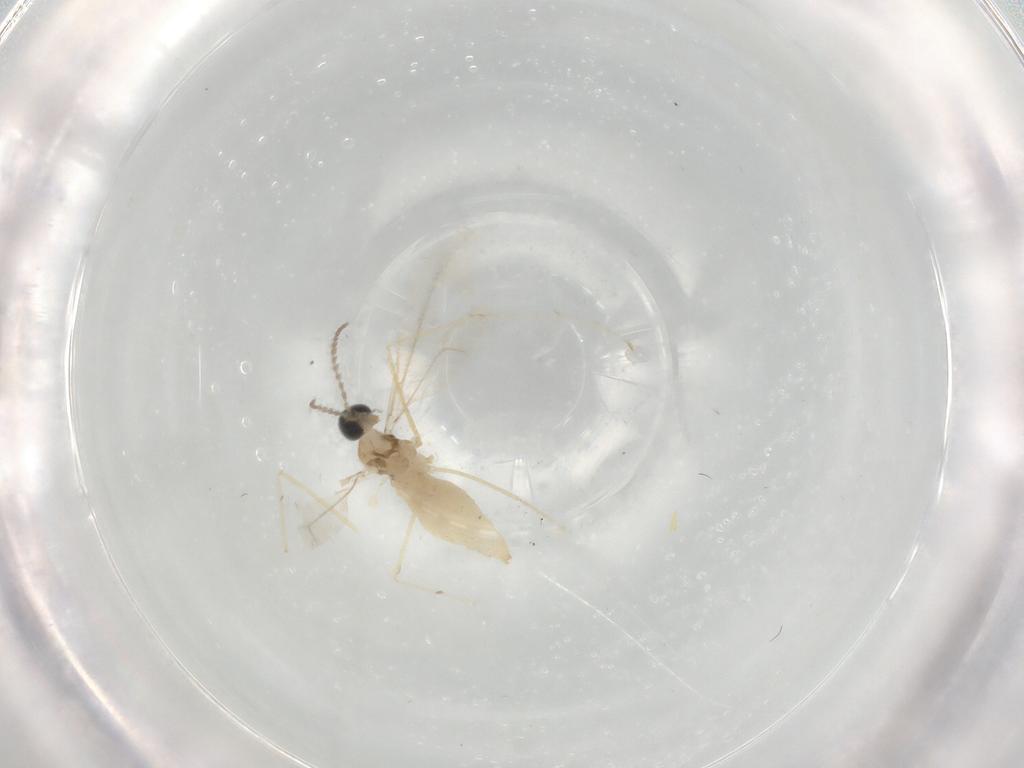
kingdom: Animalia
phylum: Arthropoda
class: Insecta
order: Diptera
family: Cecidomyiidae
